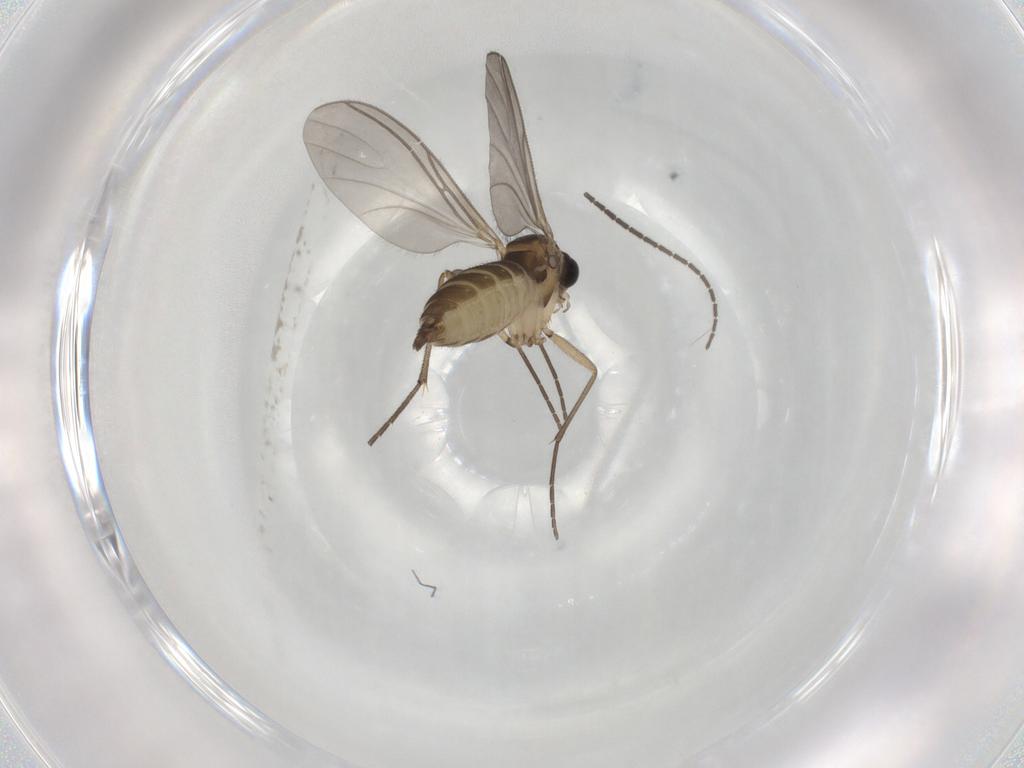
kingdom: Animalia
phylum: Arthropoda
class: Insecta
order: Diptera
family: Sciaridae
